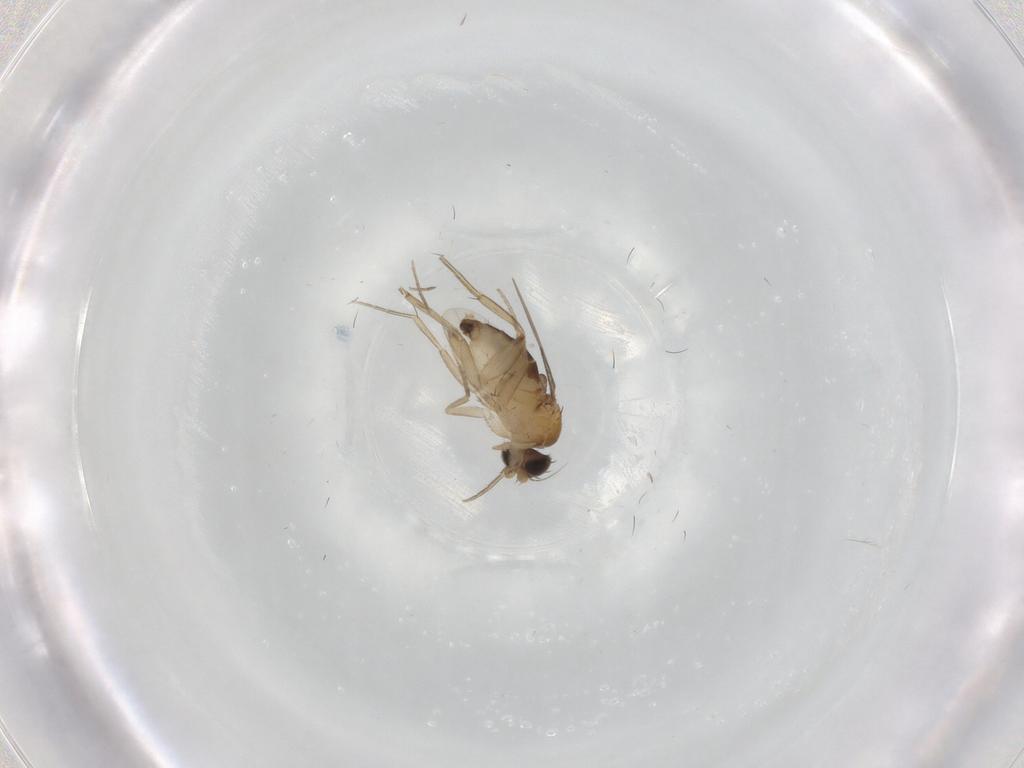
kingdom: Animalia
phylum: Arthropoda
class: Insecta
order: Diptera
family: Phoridae
